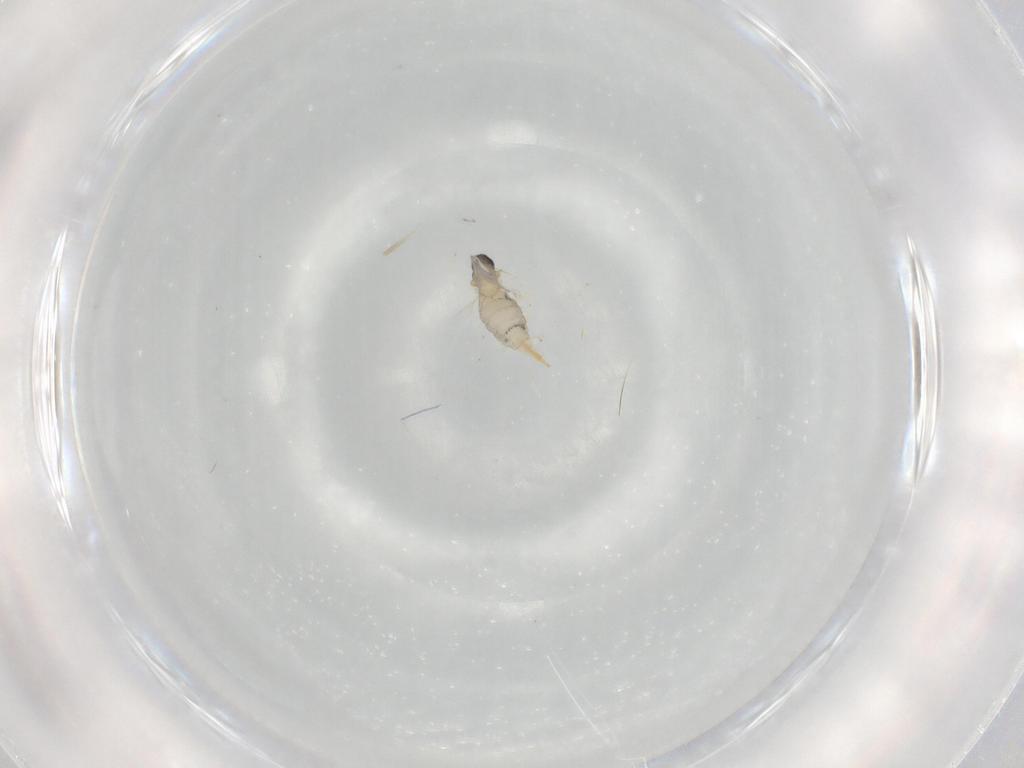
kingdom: Animalia
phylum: Arthropoda
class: Insecta
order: Diptera
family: Cecidomyiidae
